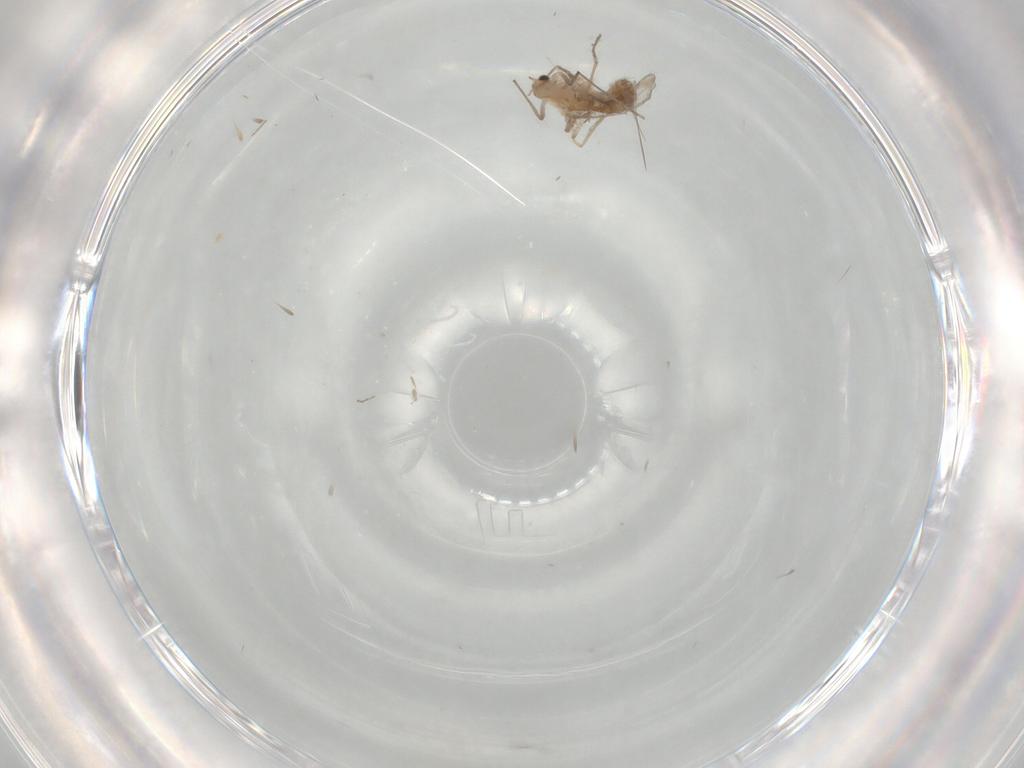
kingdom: Animalia
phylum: Arthropoda
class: Insecta
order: Diptera
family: Chironomidae
